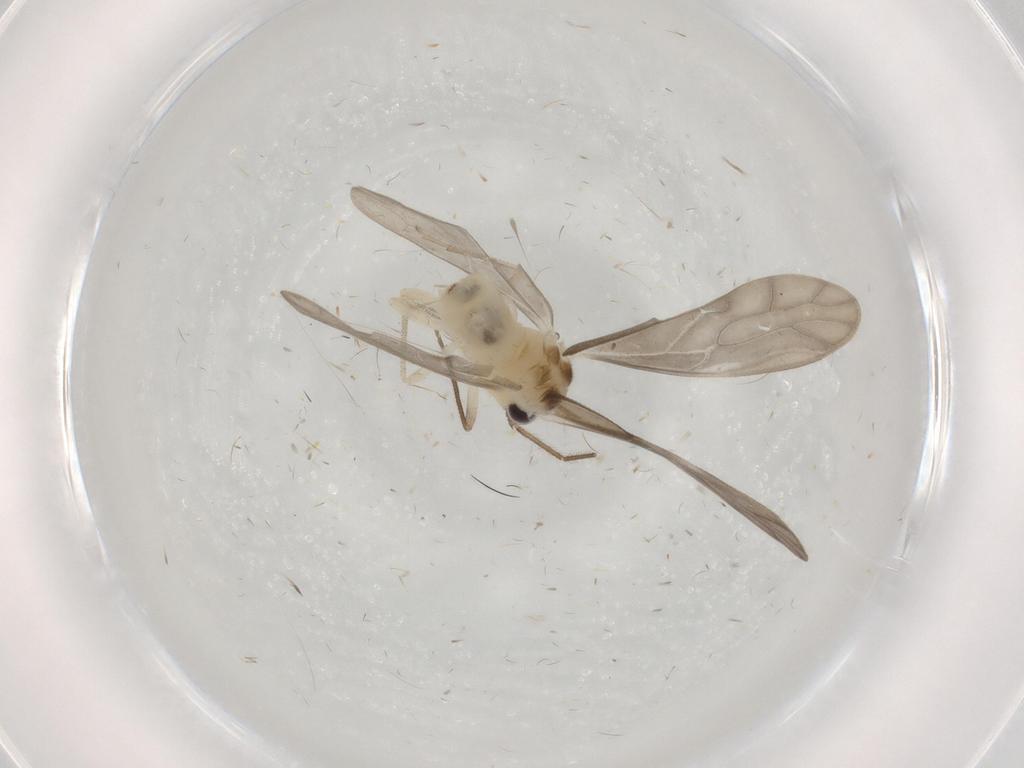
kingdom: Animalia
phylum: Arthropoda
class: Insecta
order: Psocodea
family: Caeciliusidae
